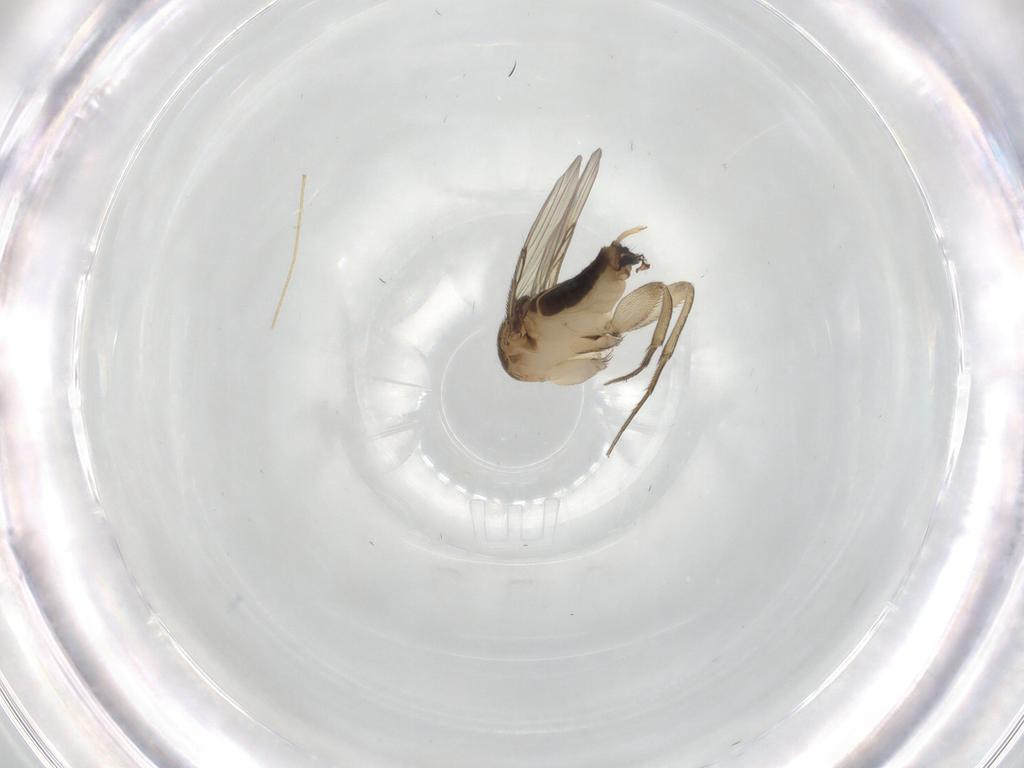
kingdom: Animalia
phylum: Arthropoda
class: Insecta
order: Diptera
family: Phoridae
